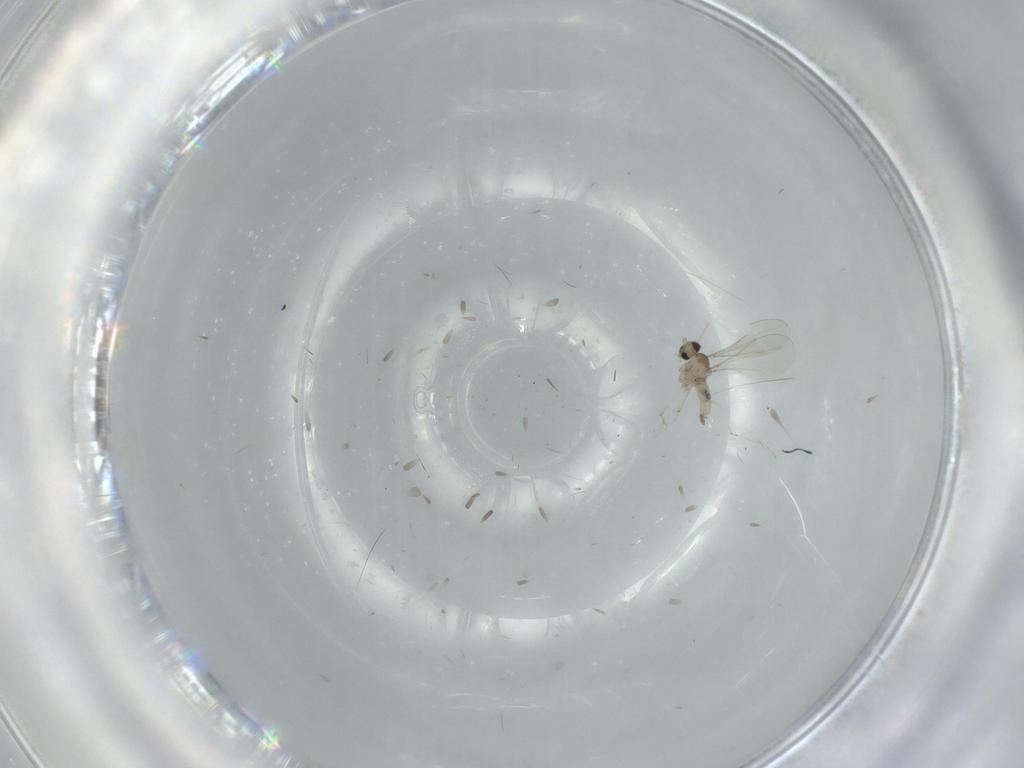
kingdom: Animalia
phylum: Arthropoda
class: Insecta
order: Diptera
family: Cecidomyiidae
